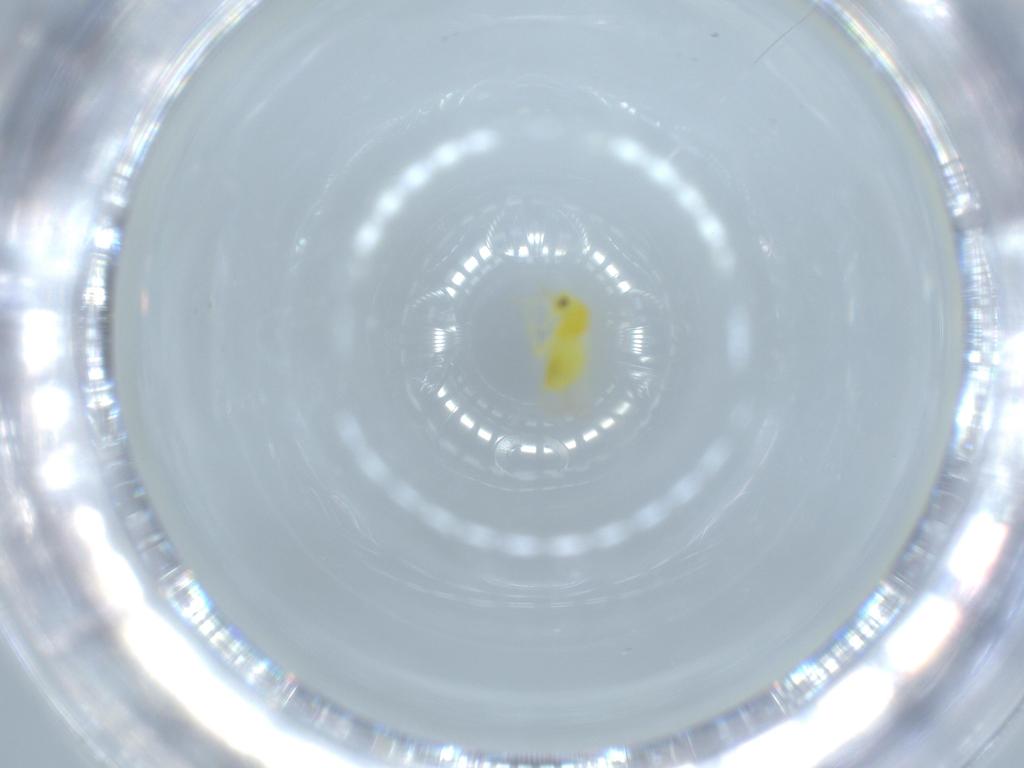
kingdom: Animalia
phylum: Arthropoda
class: Insecta
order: Hemiptera
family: Aleyrodidae
